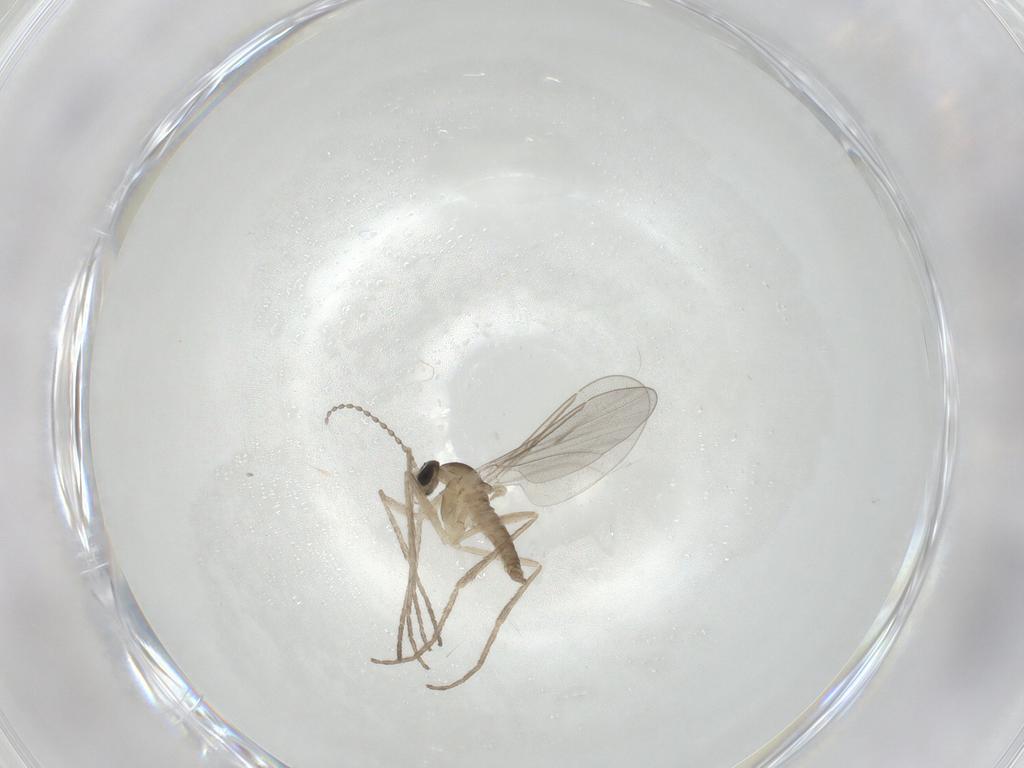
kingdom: Animalia
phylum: Arthropoda
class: Insecta
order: Diptera
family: Cecidomyiidae
